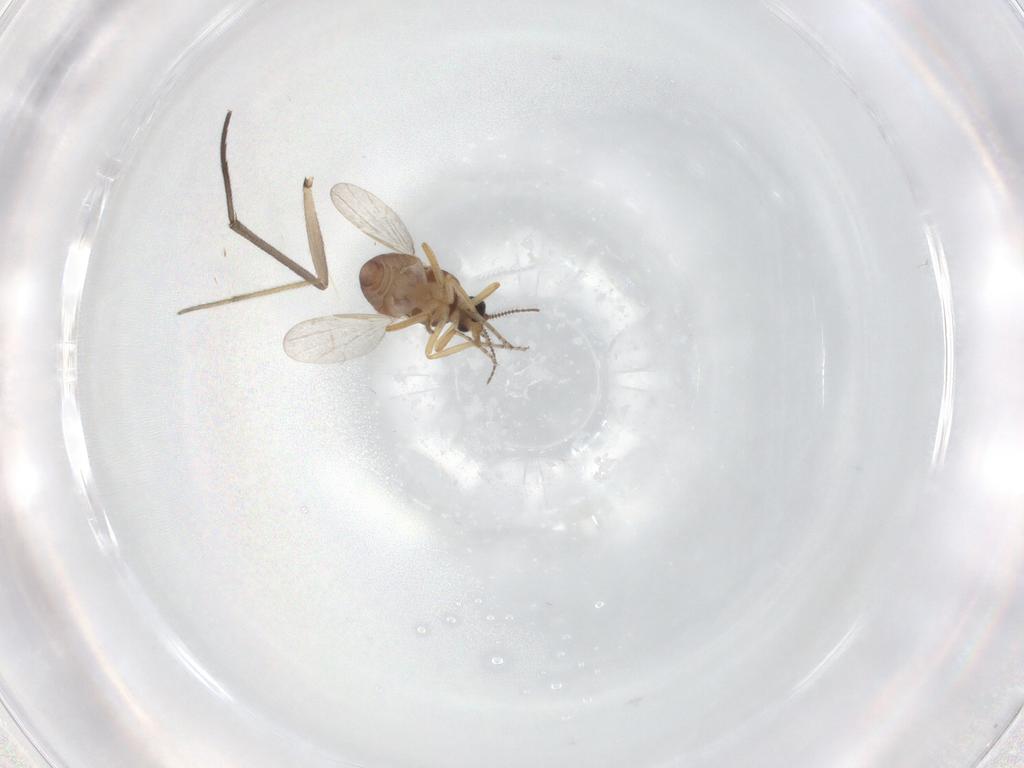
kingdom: Animalia
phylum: Arthropoda
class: Insecta
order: Diptera
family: Ceratopogonidae
